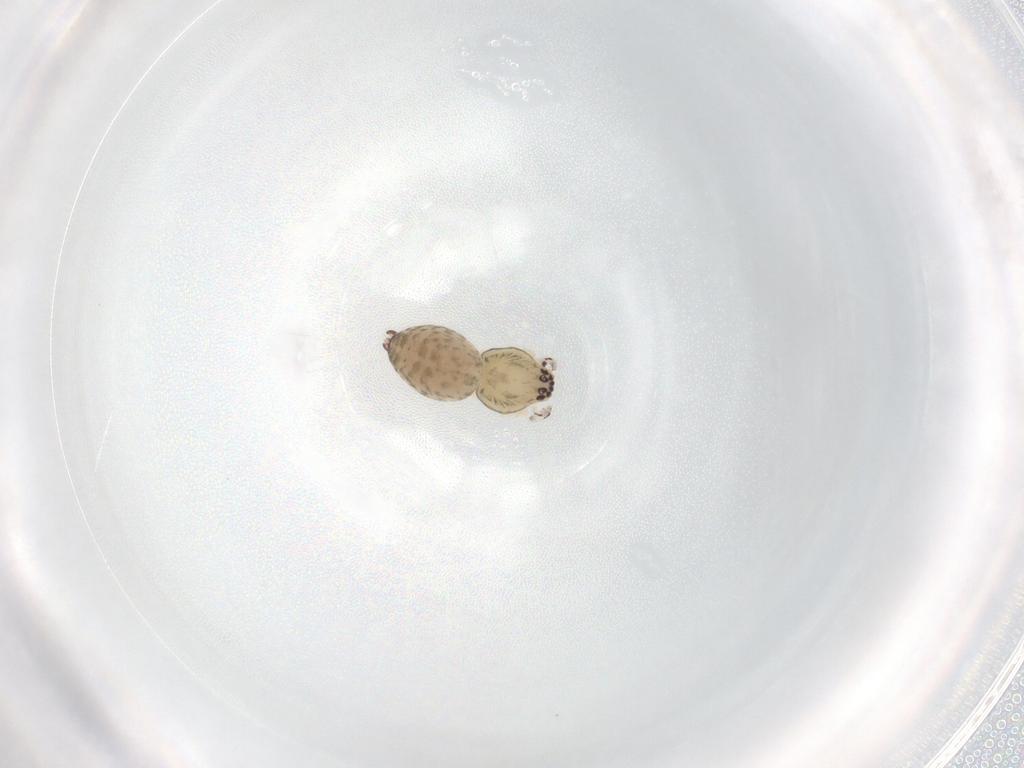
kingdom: Animalia
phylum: Arthropoda
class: Arachnida
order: Araneae
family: Anyphaenidae
